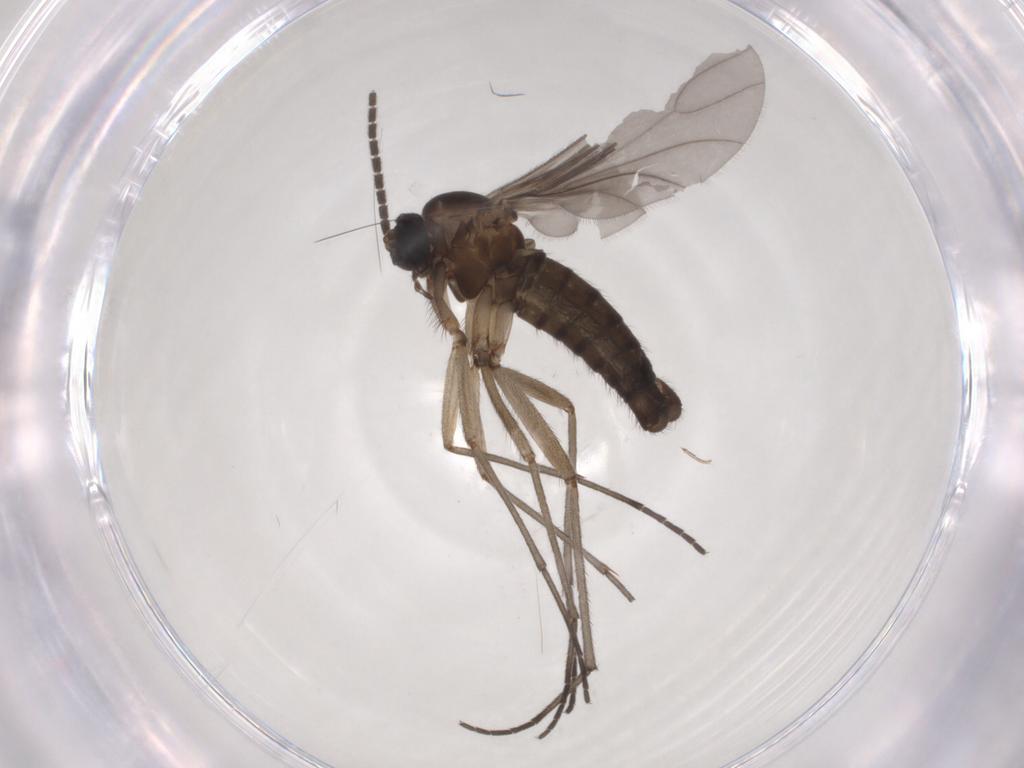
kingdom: Animalia
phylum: Arthropoda
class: Insecta
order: Diptera
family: Sciaridae
